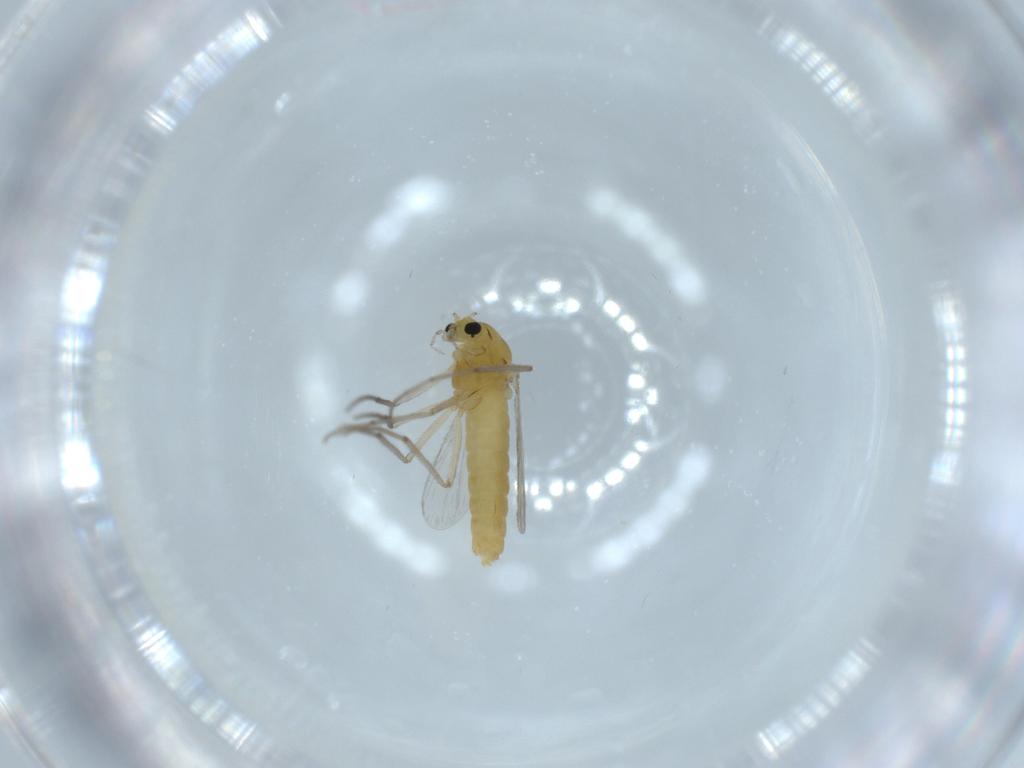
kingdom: Animalia
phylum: Arthropoda
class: Insecta
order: Diptera
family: Chironomidae
